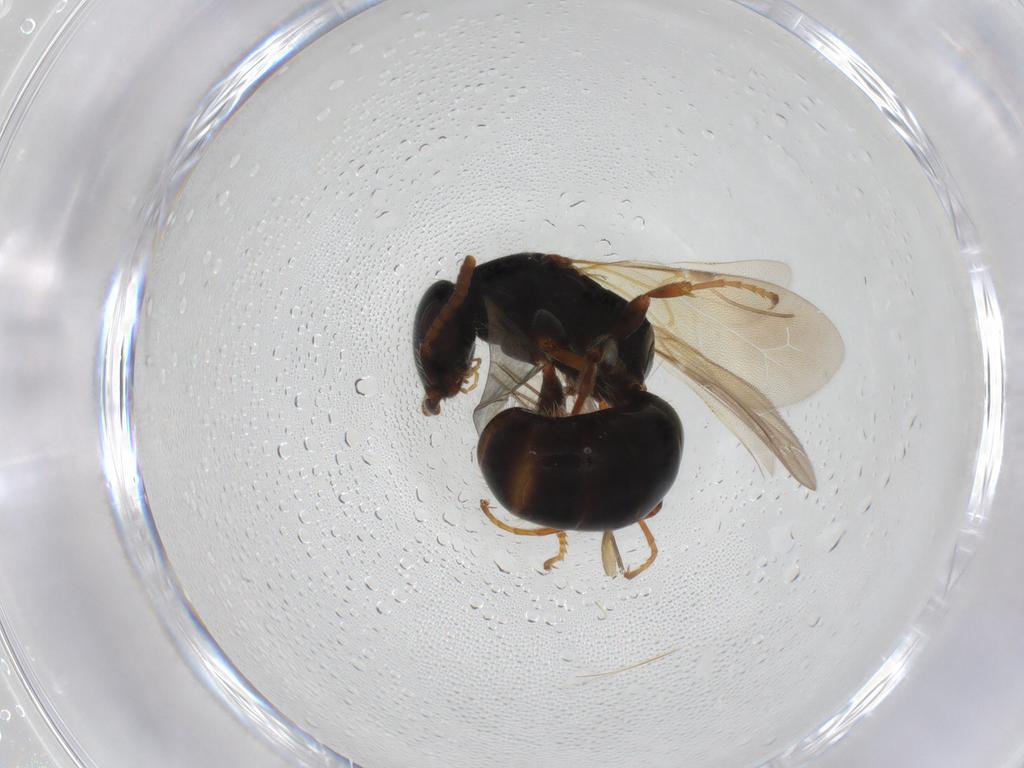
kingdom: Animalia
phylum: Arthropoda
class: Insecta
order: Hymenoptera
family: Bethylidae
